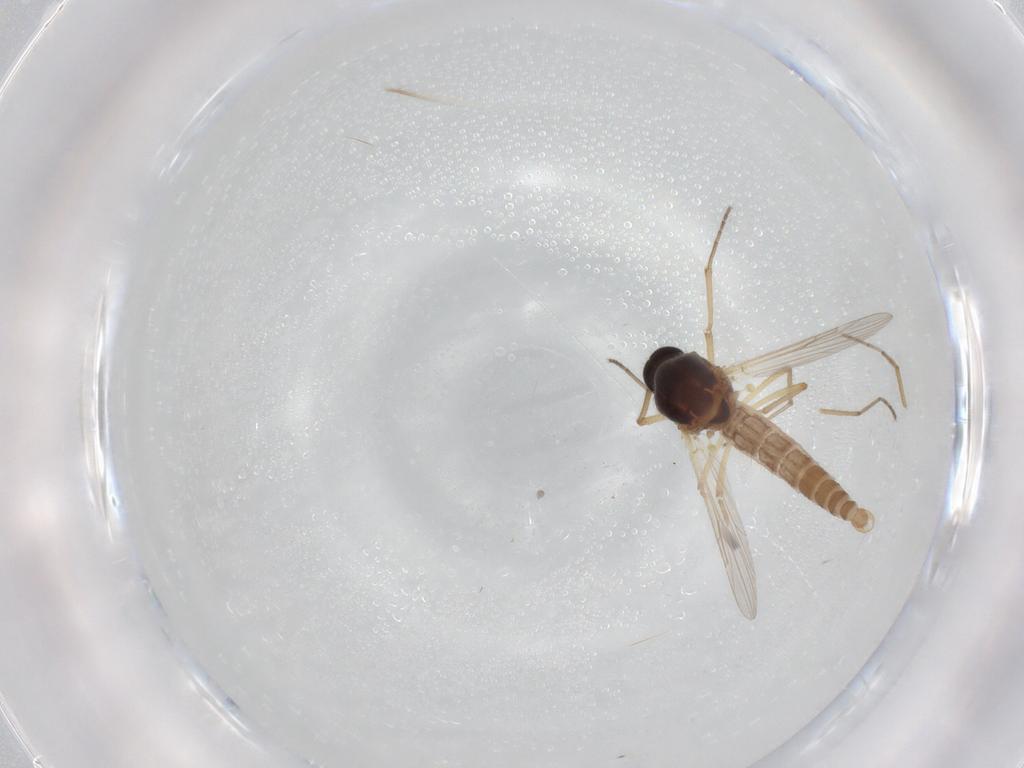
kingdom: Animalia
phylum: Arthropoda
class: Insecta
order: Diptera
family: Ceratopogonidae
